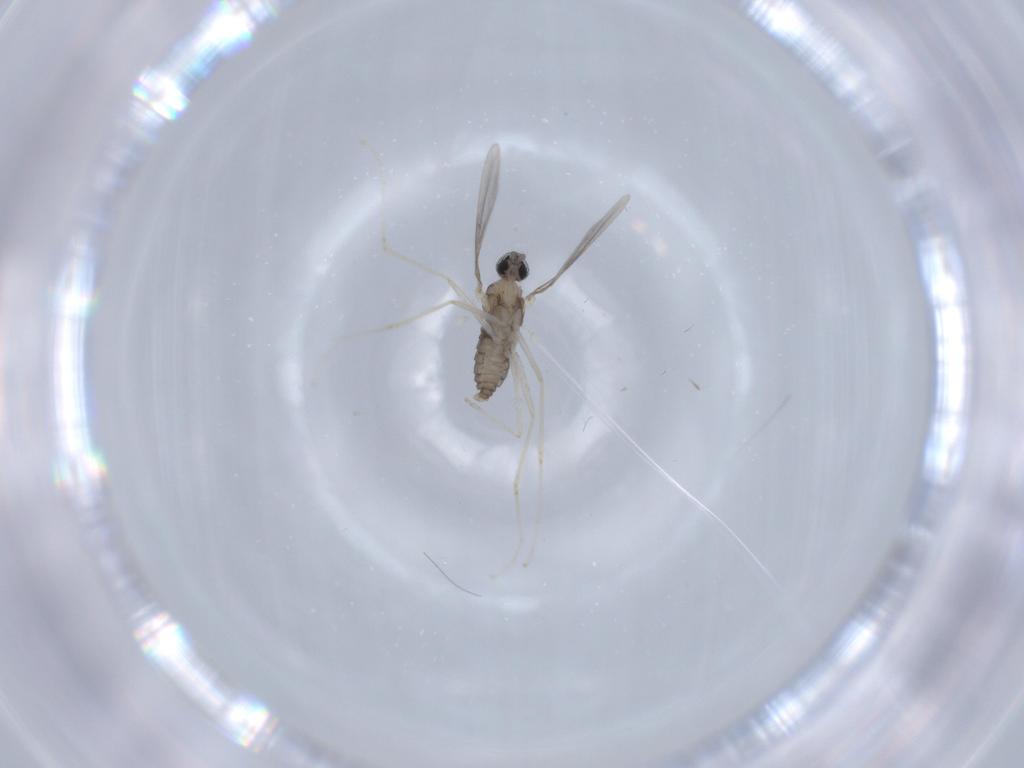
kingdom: Animalia
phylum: Arthropoda
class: Insecta
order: Diptera
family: Cecidomyiidae
